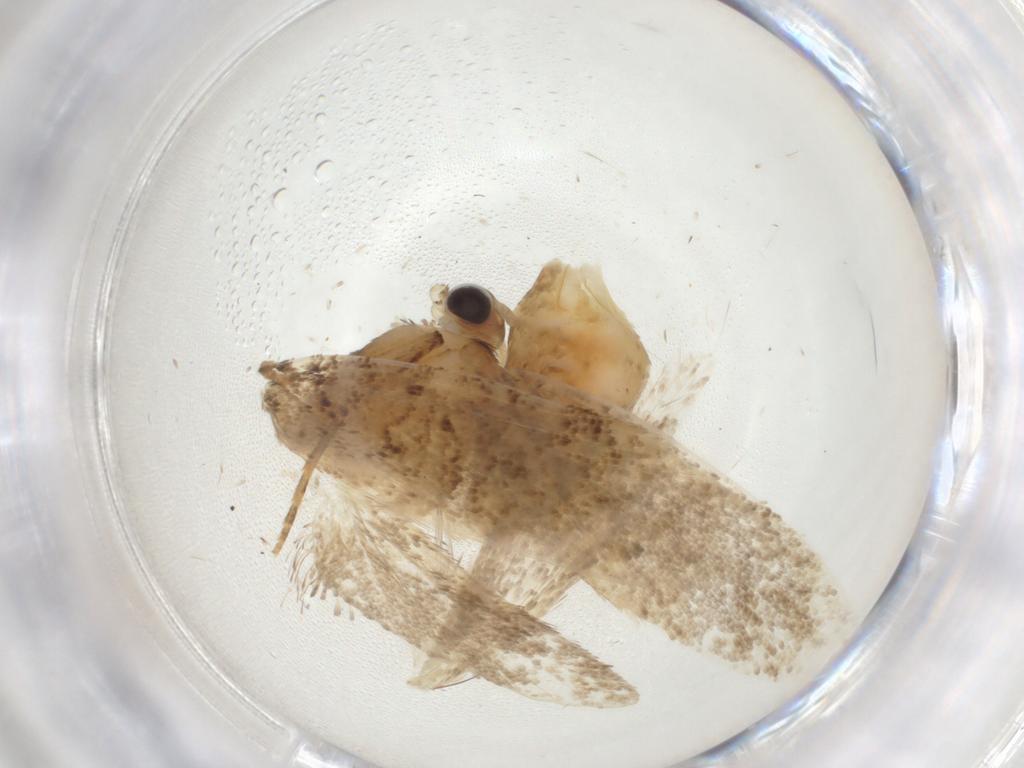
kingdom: Animalia
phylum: Arthropoda
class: Insecta
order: Lepidoptera
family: Tineidae
